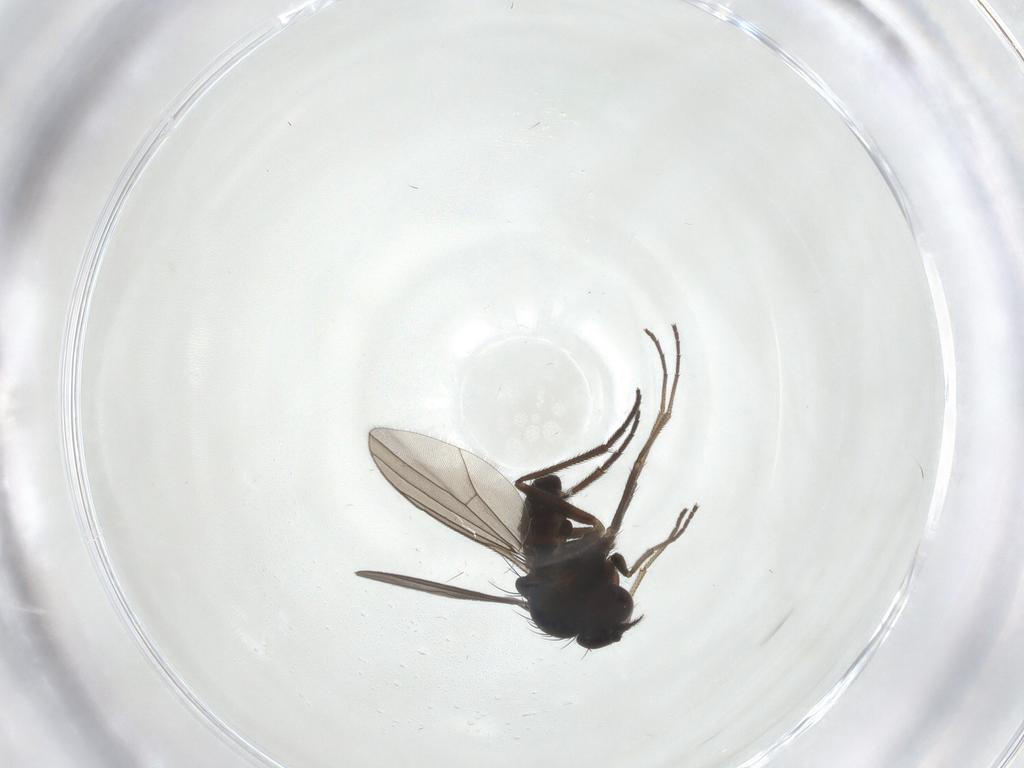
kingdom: Animalia
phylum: Arthropoda
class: Insecta
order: Diptera
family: Dolichopodidae
